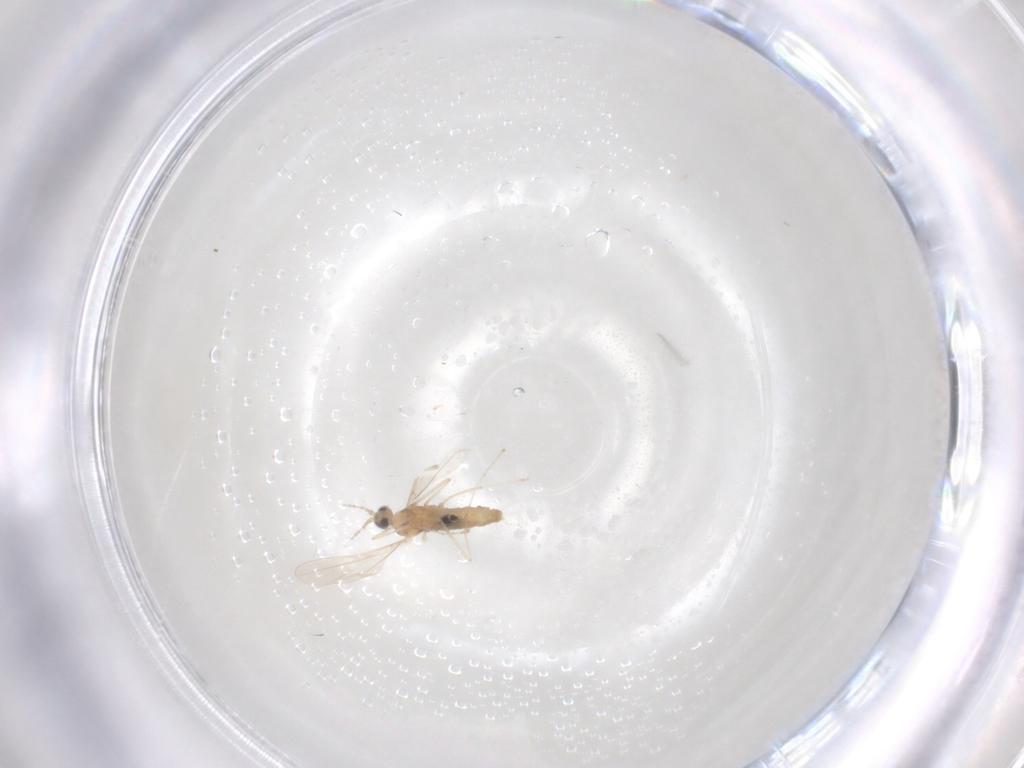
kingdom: Animalia
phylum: Arthropoda
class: Insecta
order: Diptera
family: Cecidomyiidae
